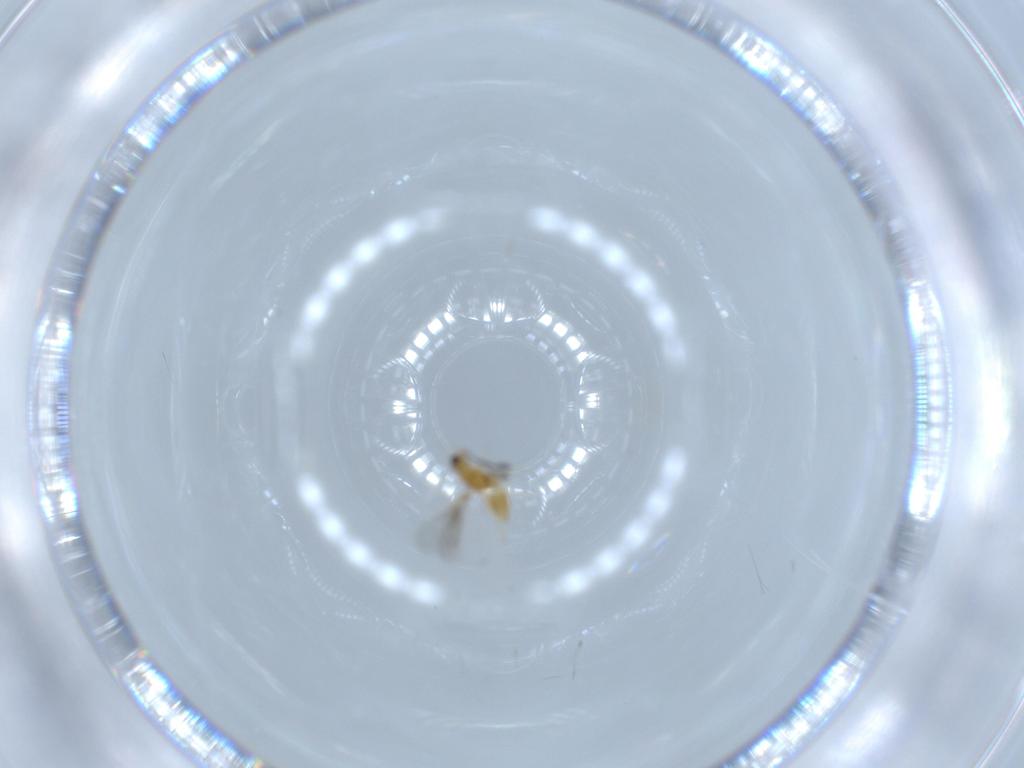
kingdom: Animalia
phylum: Arthropoda
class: Insecta
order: Hymenoptera
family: Mymaridae
